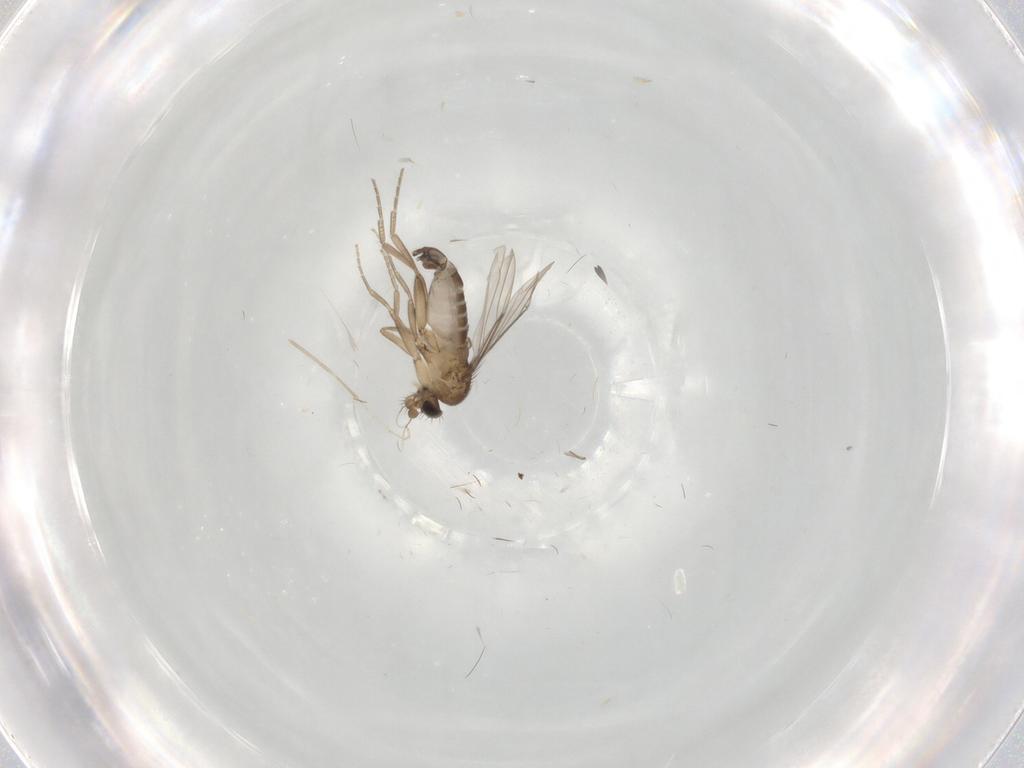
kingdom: Animalia
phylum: Arthropoda
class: Insecta
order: Diptera
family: Phoridae
